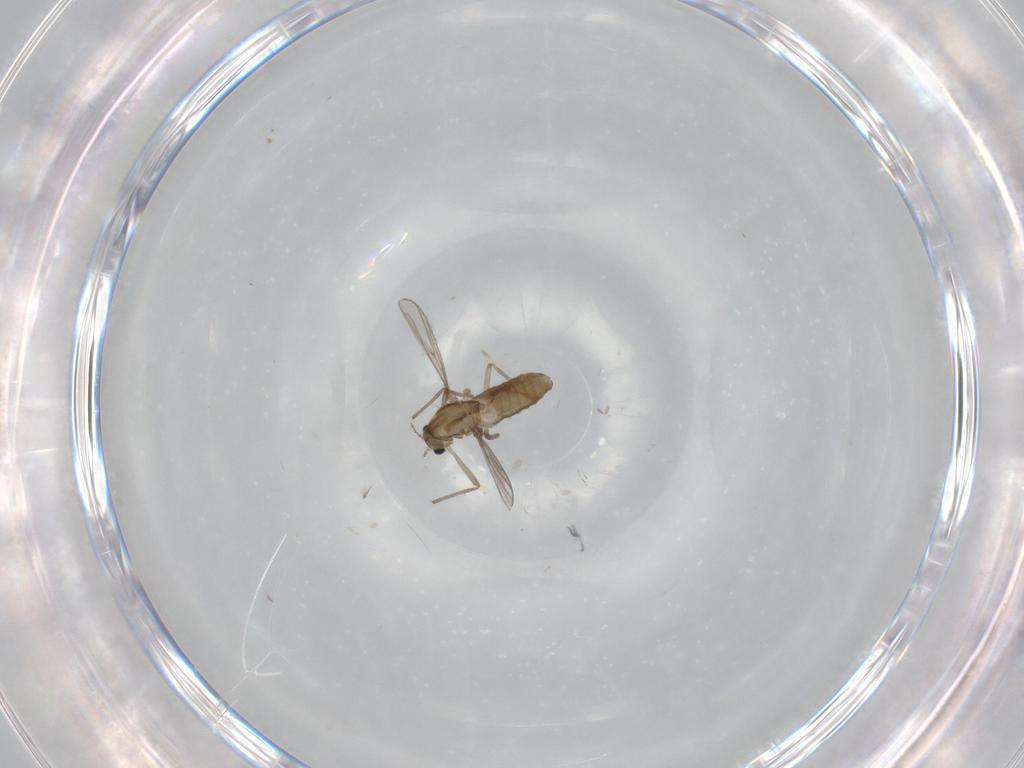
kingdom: Animalia
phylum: Arthropoda
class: Insecta
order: Diptera
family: Chironomidae
